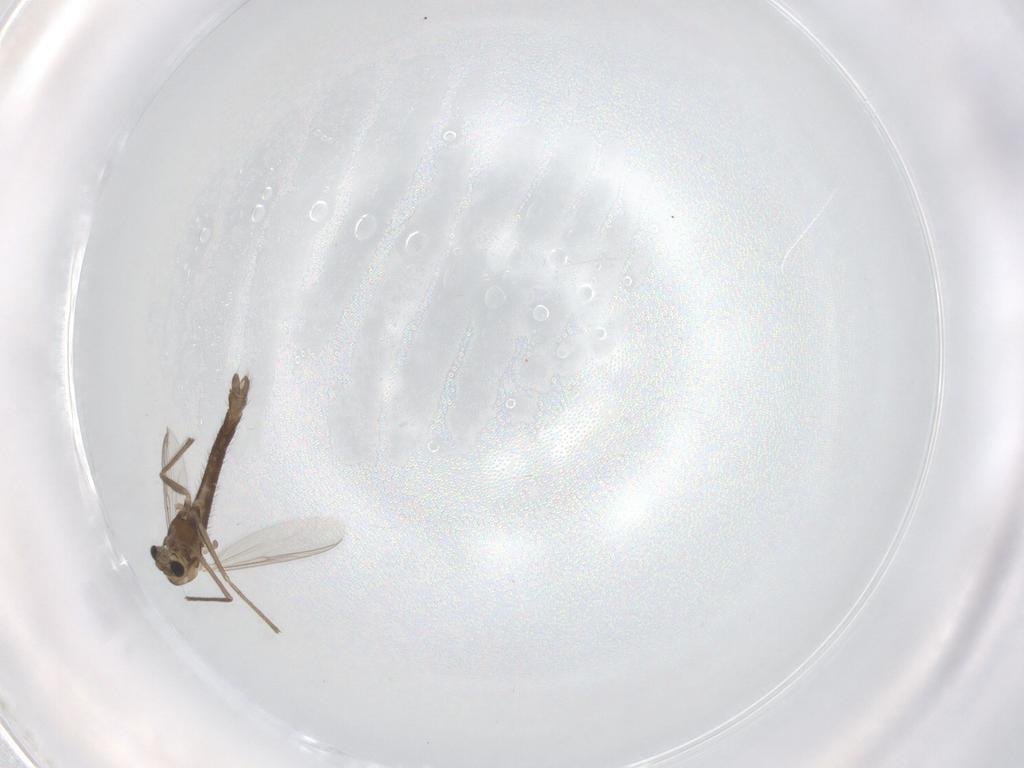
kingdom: Animalia
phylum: Arthropoda
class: Insecta
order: Diptera
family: Chironomidae
